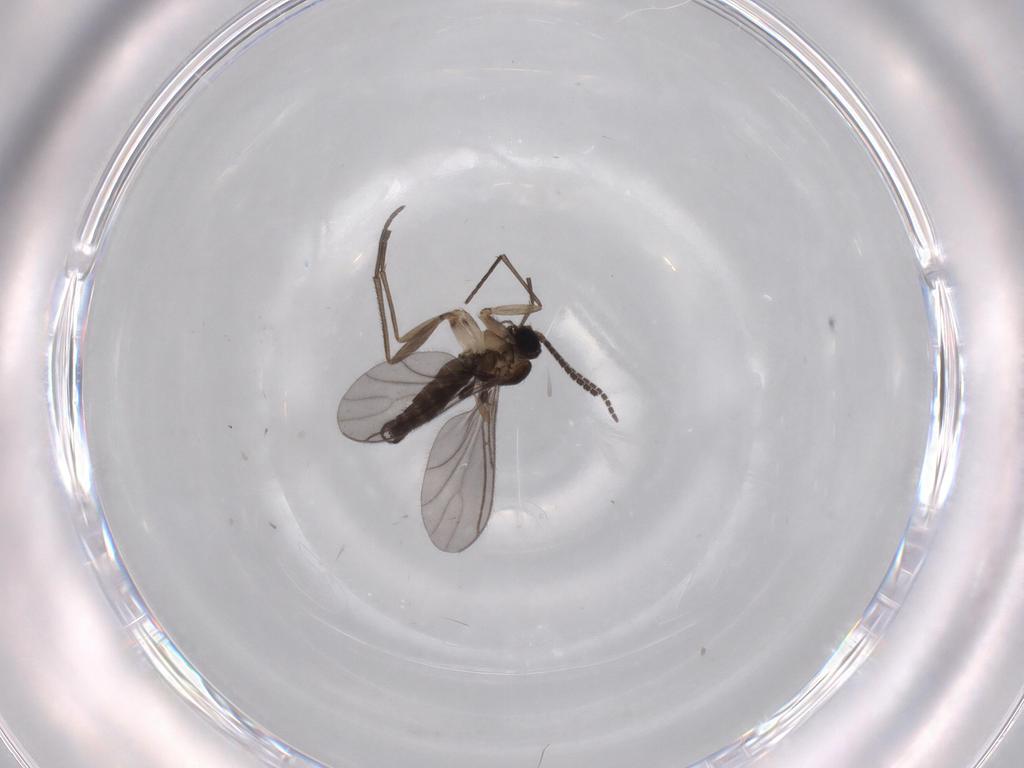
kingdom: Animalia
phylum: Arthropoda
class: Insecta
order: Diptera
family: Sciaridae
